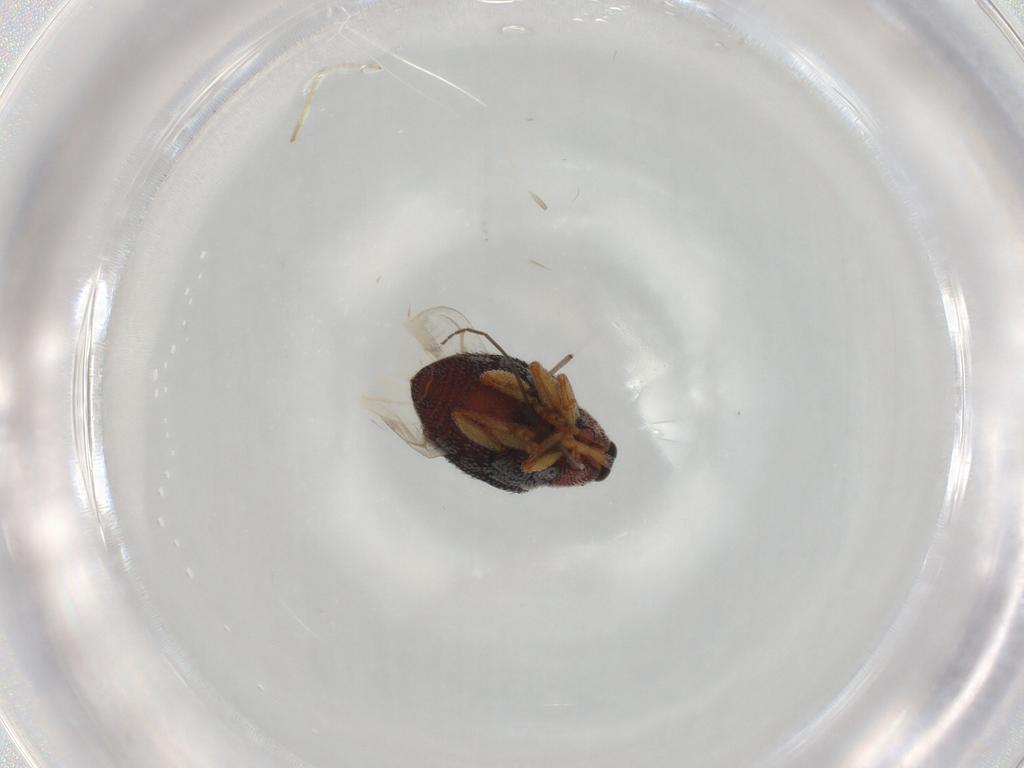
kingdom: Animalia
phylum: Arthropoda
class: Insecta
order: Coleoptera
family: Curculionidae
